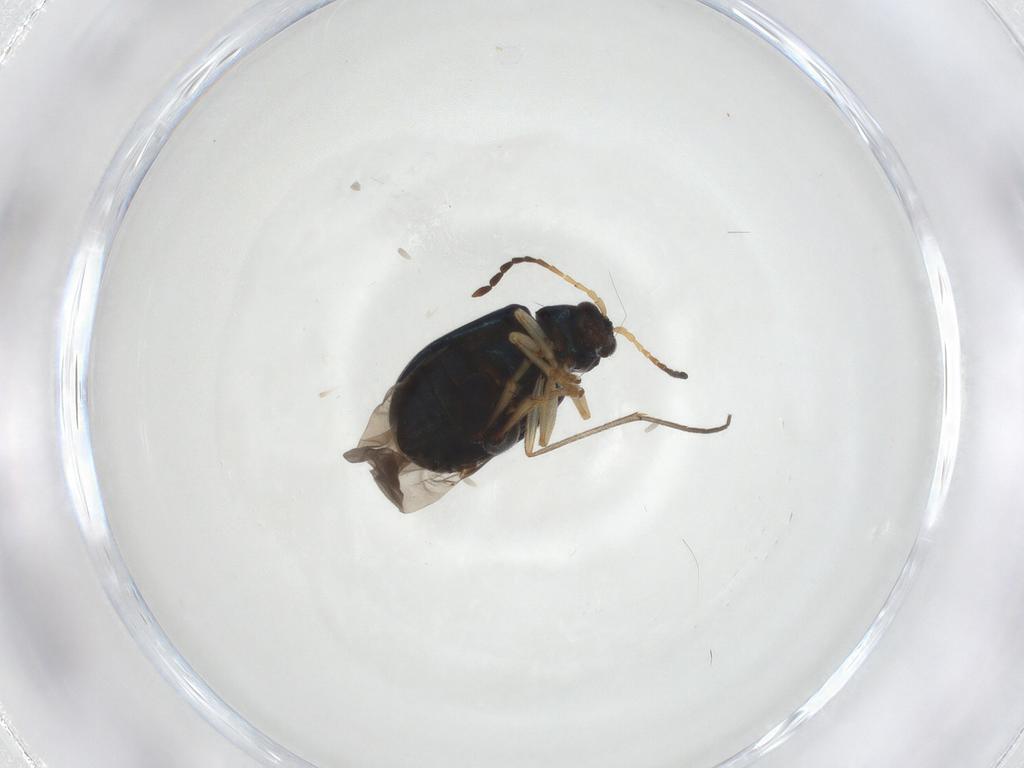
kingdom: Animalia
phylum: Arthropoda
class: Insecta
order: Coleoptera
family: Chrysomelidae
